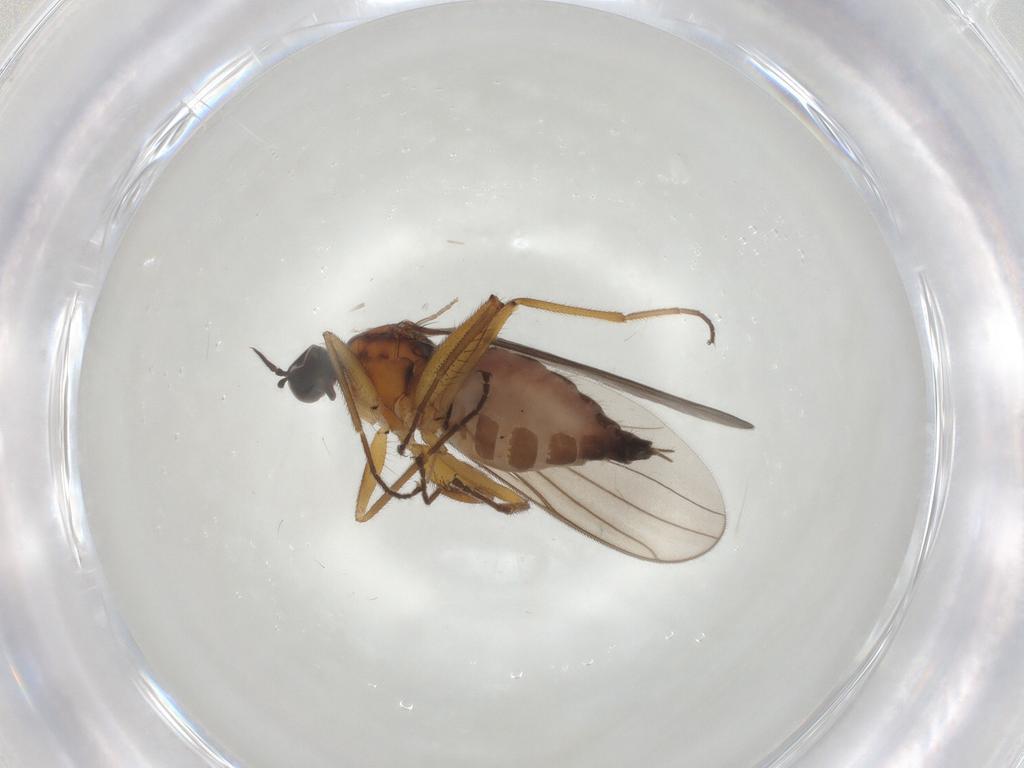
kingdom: Animalia
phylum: Arthropoda
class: Insecta
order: Diptera
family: Hybotidae
